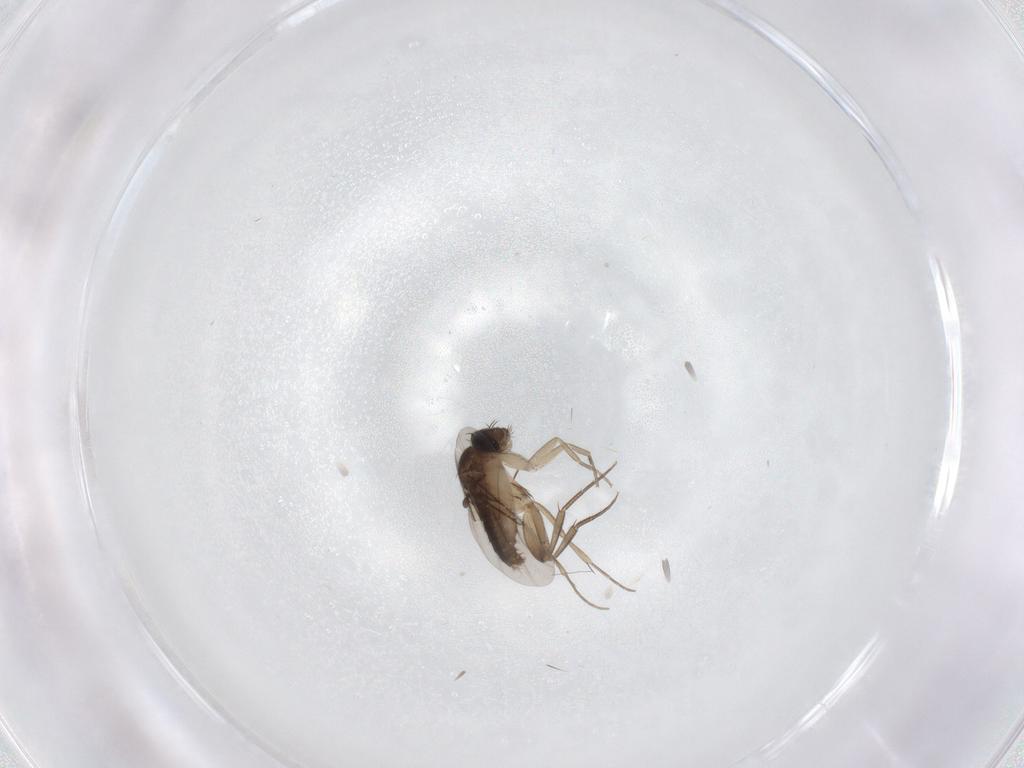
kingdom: Animalia
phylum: Arthropoda
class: Insecta
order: Diptera
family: Phoridae
